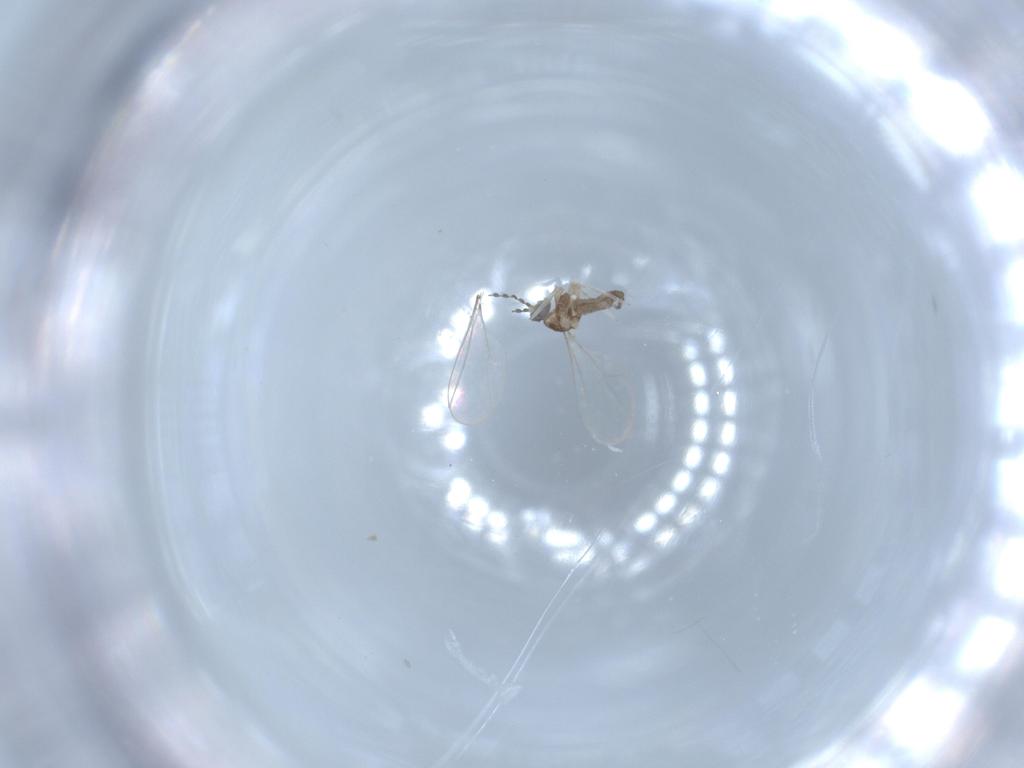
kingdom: Animalia
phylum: Arthropoda
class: Insecta
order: Diptera
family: Cecidomyiidae
